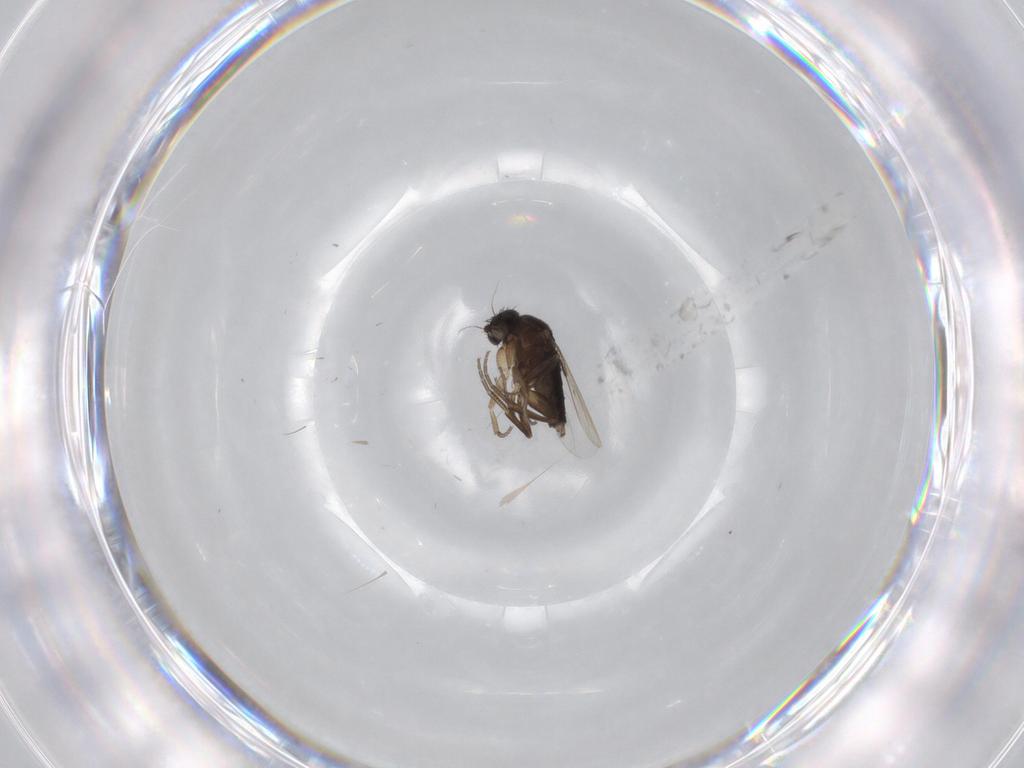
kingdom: Animalia
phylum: Arthropoda
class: Insecta
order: Diptera
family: Phoridae
